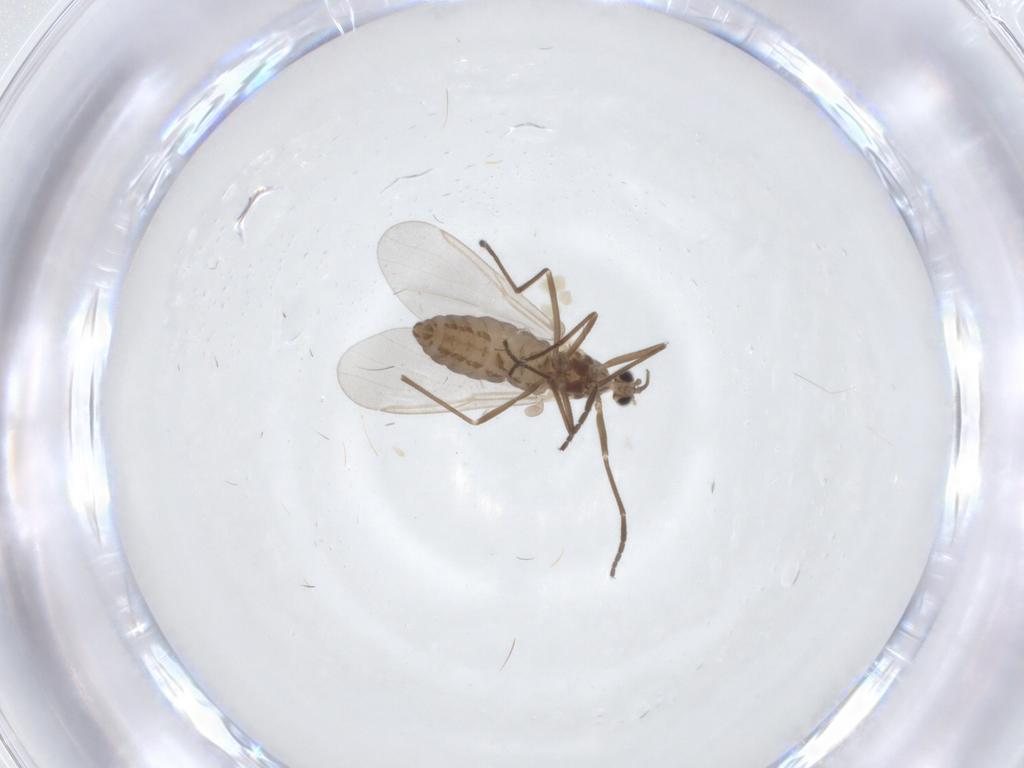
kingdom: Animalia
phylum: Arthropoda
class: Insecta
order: Diptera
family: Cecidomyiidae
